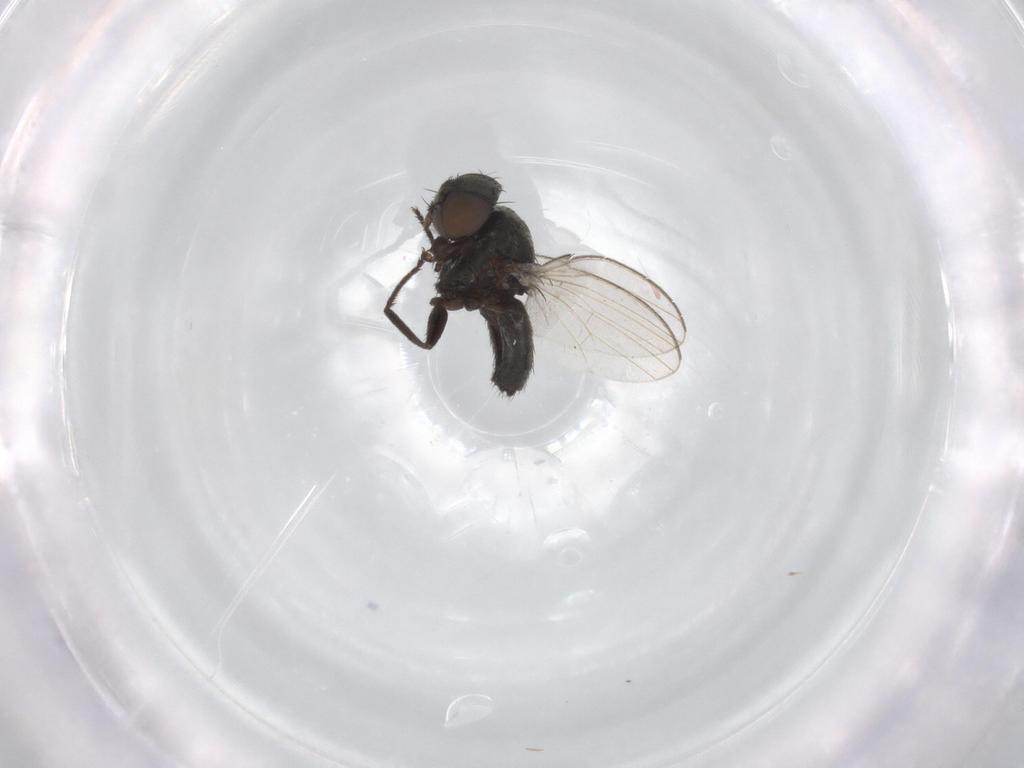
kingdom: Animalia
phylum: Arthropoda
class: Insecta
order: Diptera
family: Milichiidae
